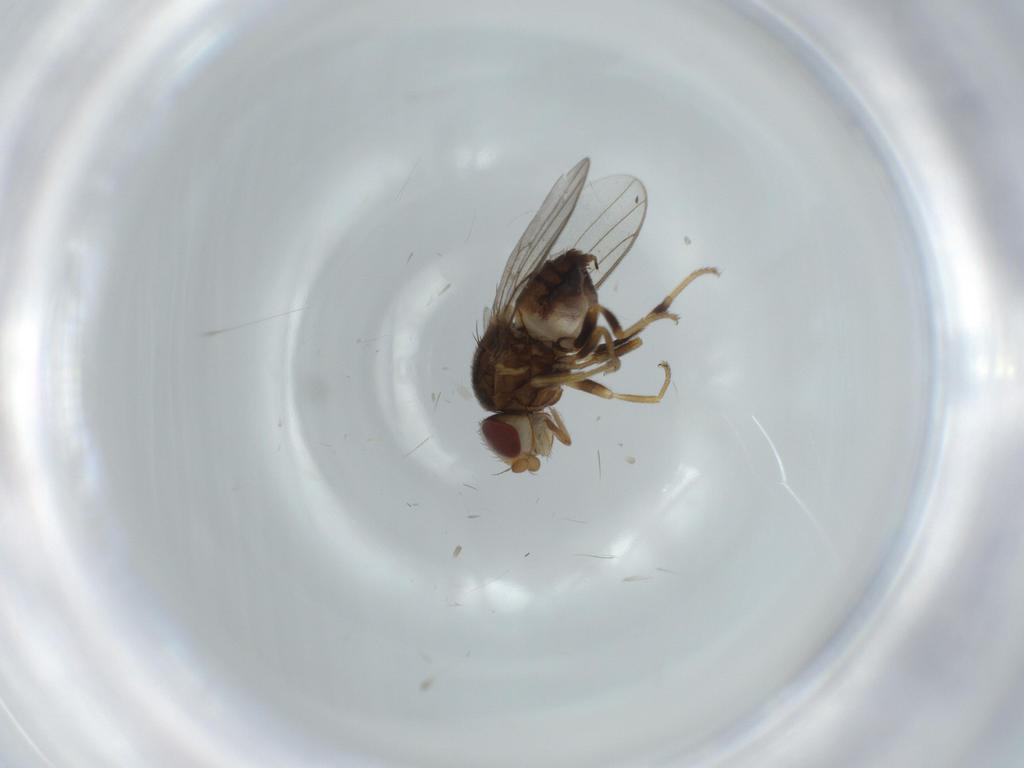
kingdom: Animalia
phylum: Arthropoda
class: Insecta
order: Diptera
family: Chloropidae
